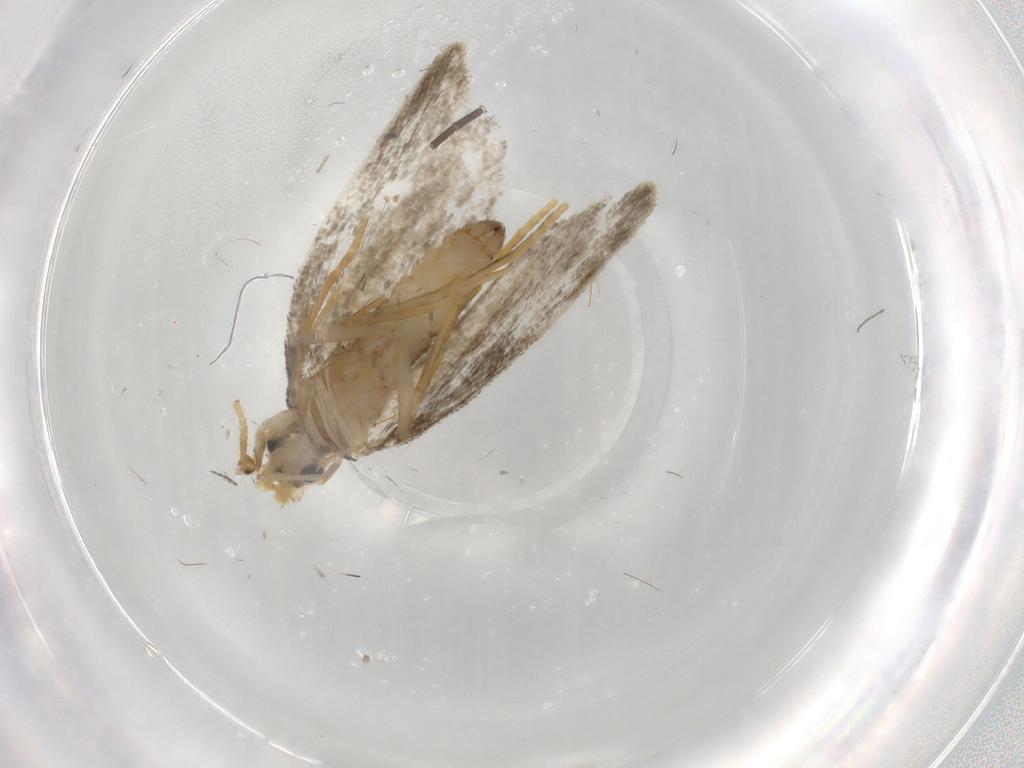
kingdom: Animalia
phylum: Arthropoda
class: Insecta
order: Lepidoptera
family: Psychidae
